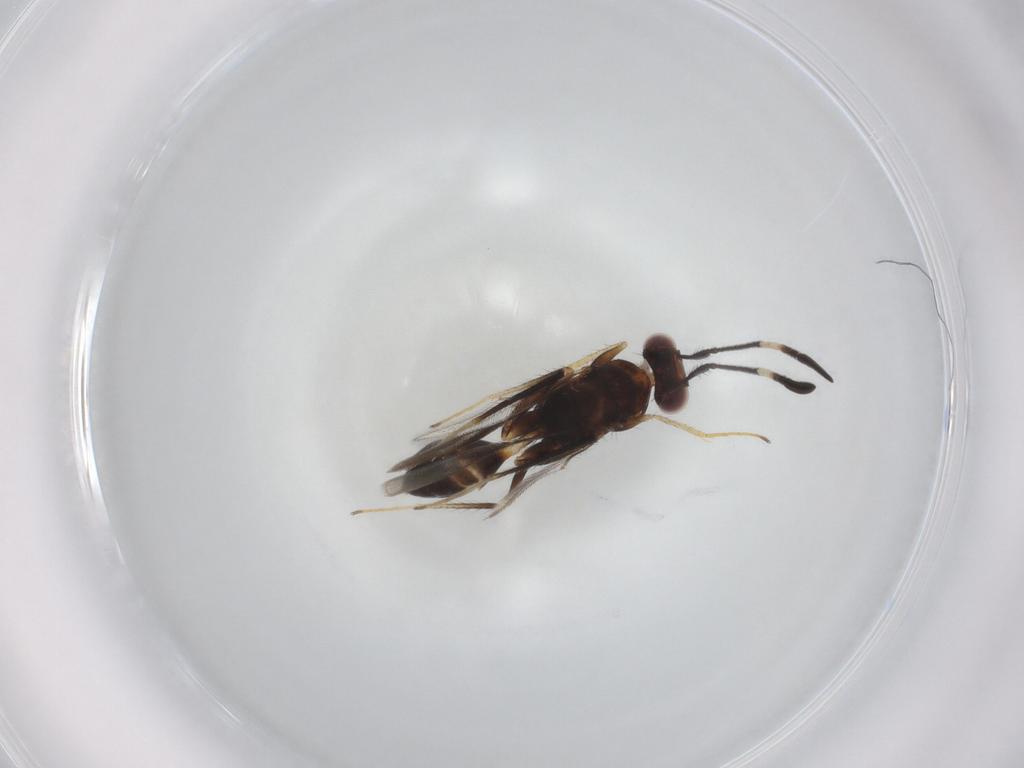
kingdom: Animalia
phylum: Arthropoda
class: Insecta
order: Hymenoptera
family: Mymaridae
